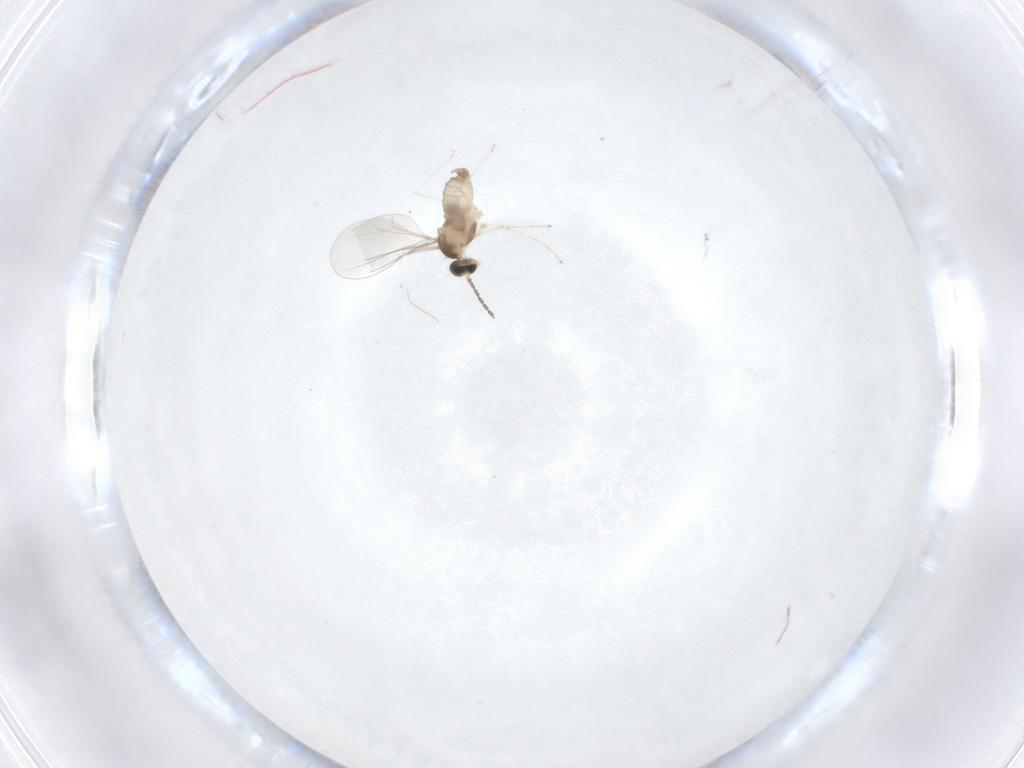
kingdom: Animalia
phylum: Arthropoda
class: Insecta
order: Diptera
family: Cecidomyiidae
